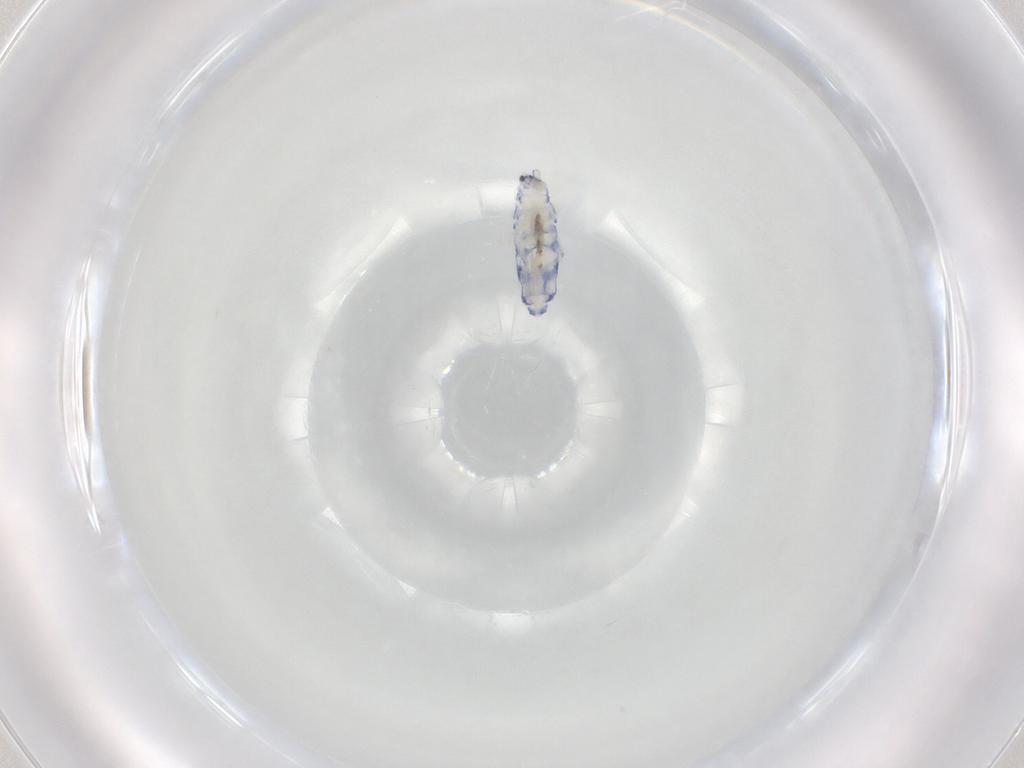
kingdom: Animalia
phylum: Arthropoda
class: Collembola
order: Entomobryomorpha
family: Entomobryidae
